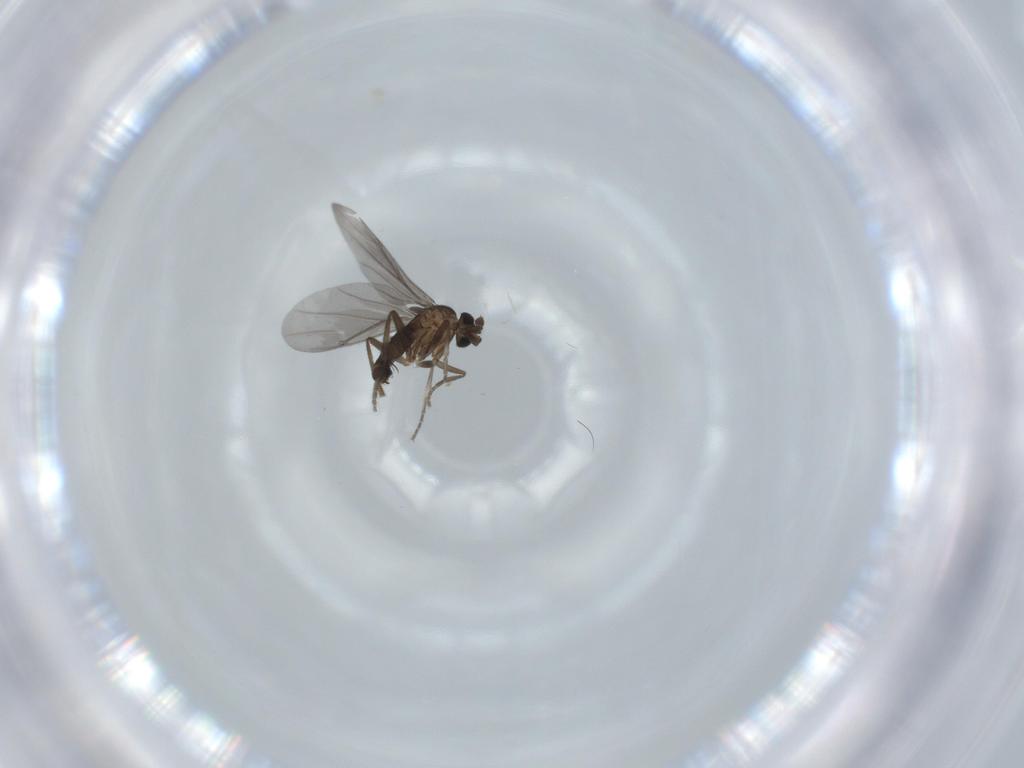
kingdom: Animalia
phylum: Arthropoda
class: Insecta
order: Diptera
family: Phoridae
